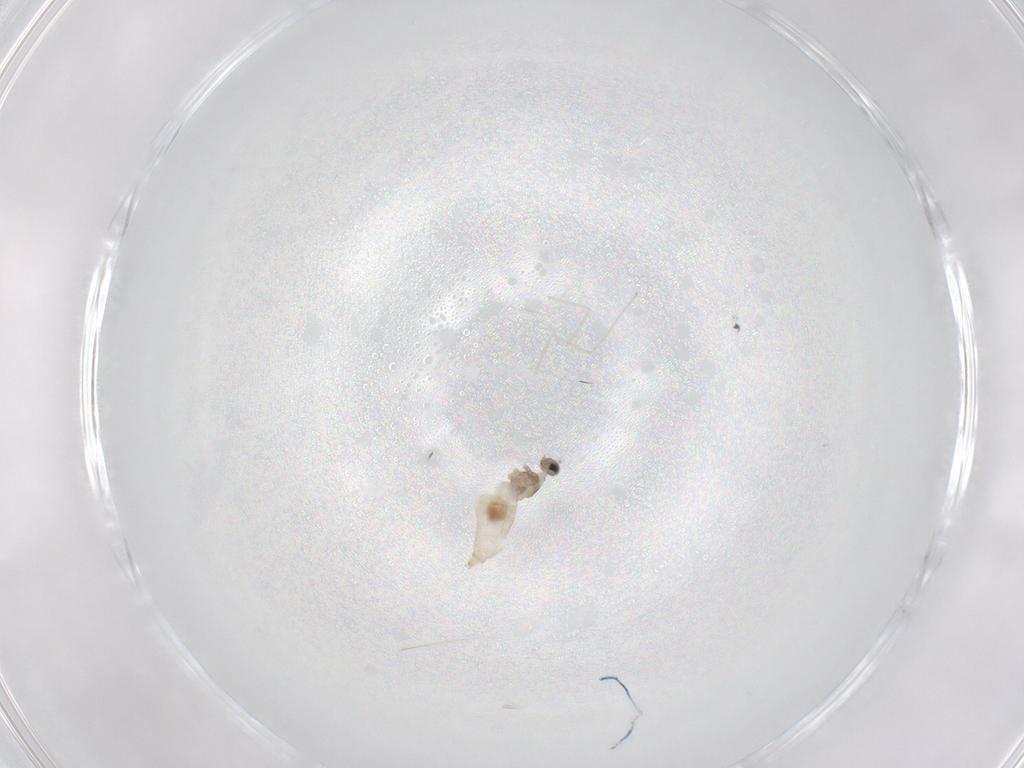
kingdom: Animalia
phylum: Arthropoda
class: Insecta
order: Diptera
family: Cecidomyiidae
